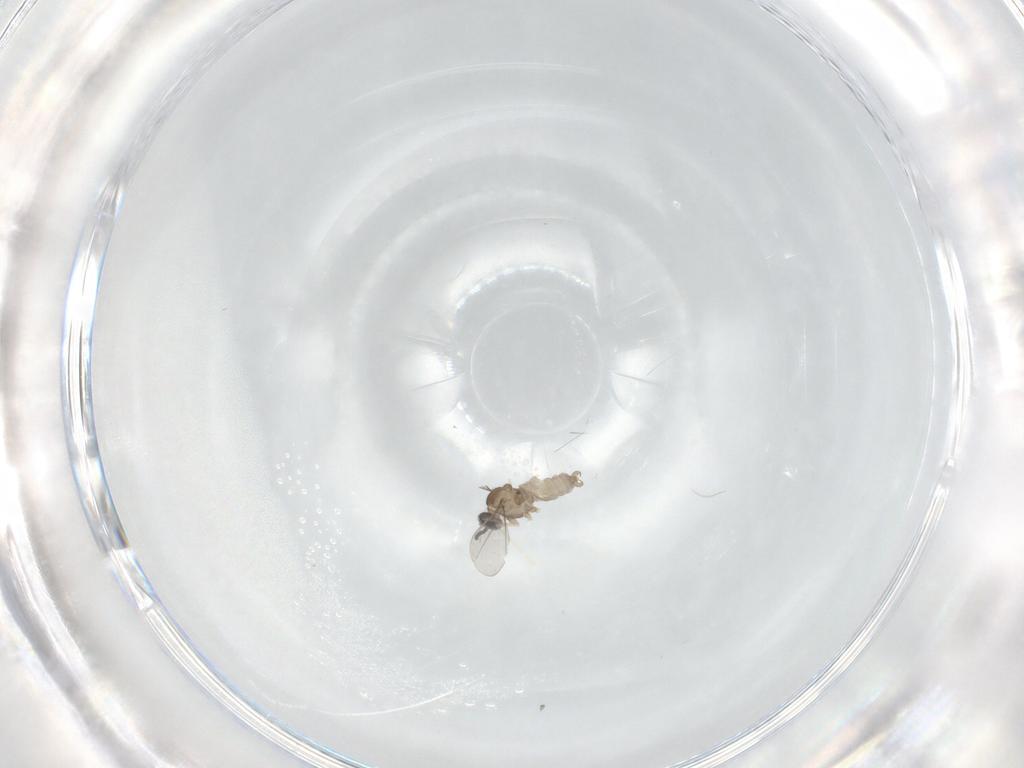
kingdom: Animalia
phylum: Arthropoda
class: Insecta
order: Diptera
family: Cecidomyiidae
